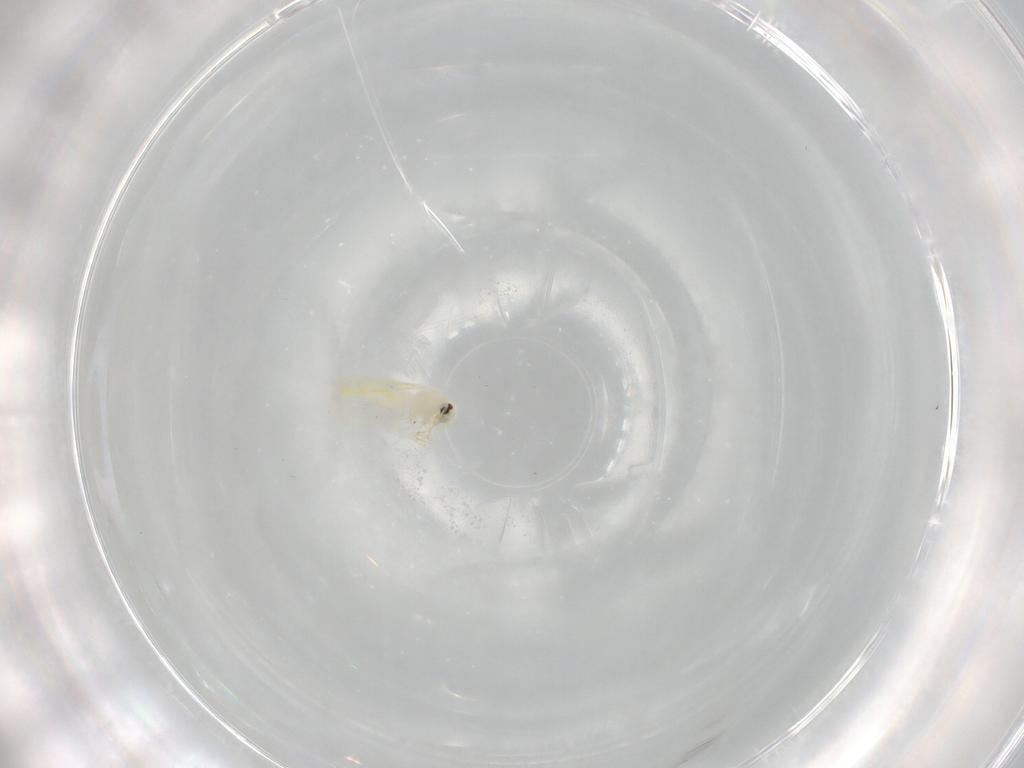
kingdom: Animalia
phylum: Arthropoda
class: Insecta
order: Hemiptera
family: Aleyrodidae
